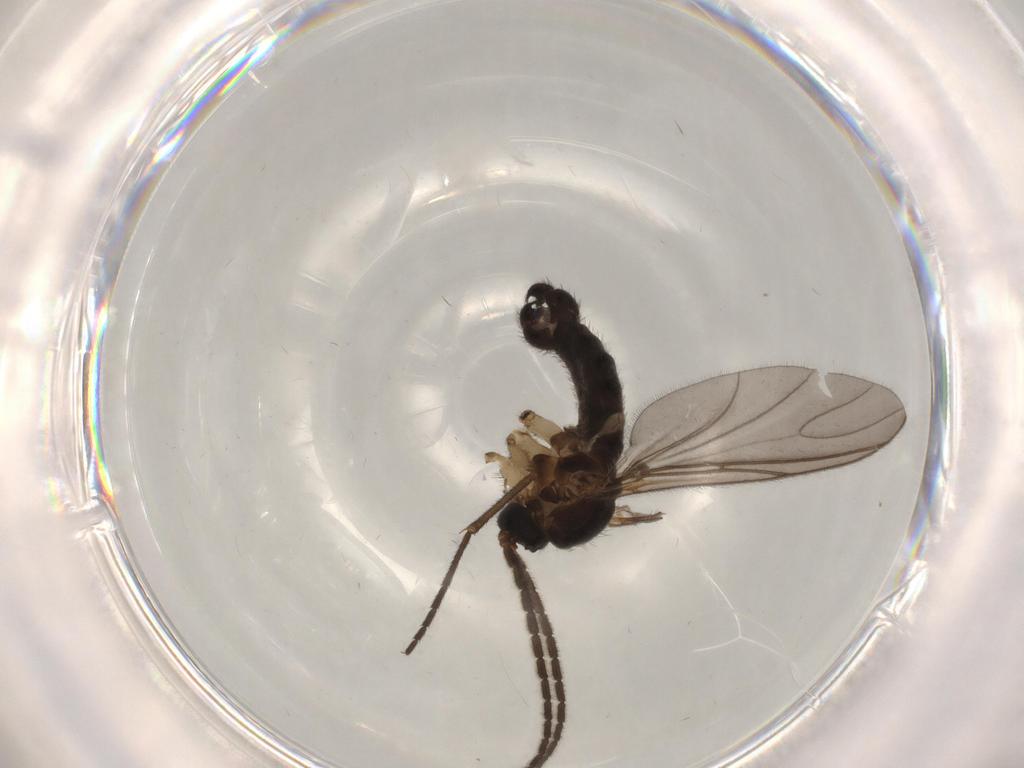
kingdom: Animalia
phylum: Arthropoda
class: Insecta
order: Diptera
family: Sciaridae
